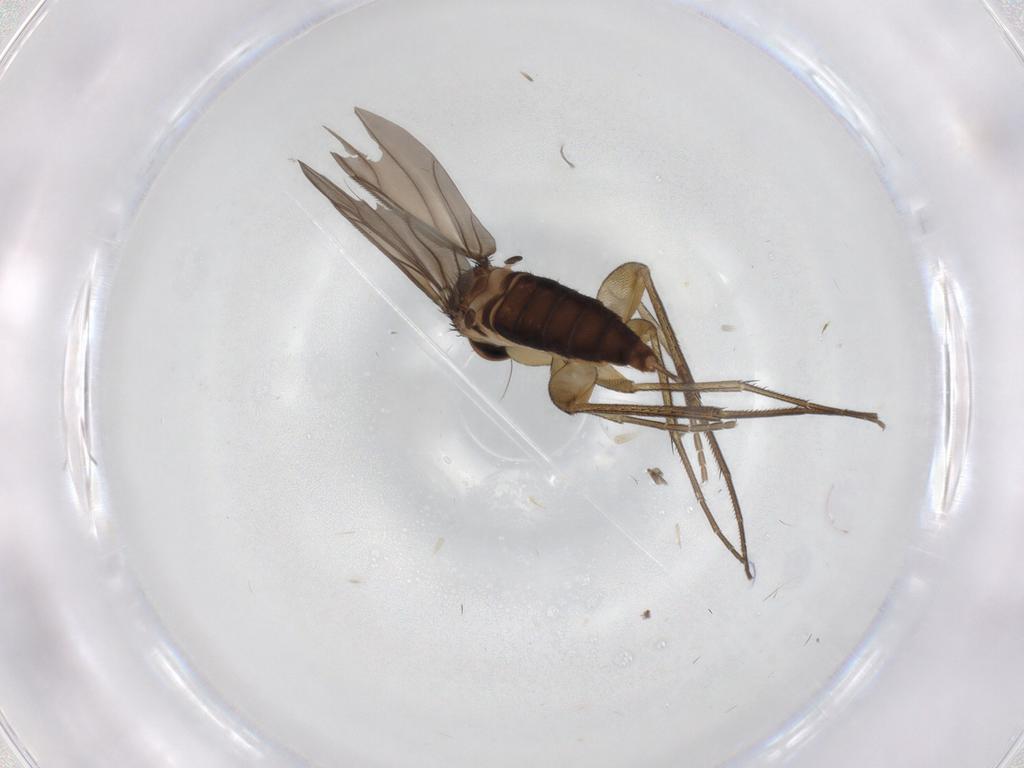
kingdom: Animalia
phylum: Arthropoda
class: Insecta
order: Diptera
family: Phoridae
